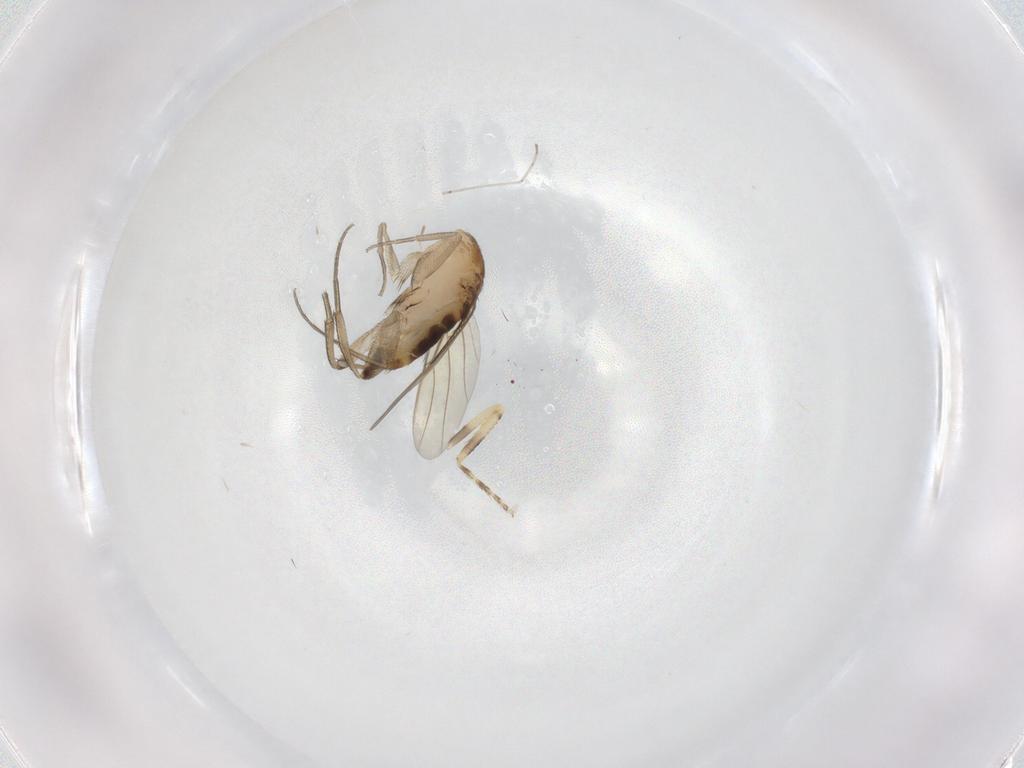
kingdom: Animalia
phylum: Arthropoda
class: Insecta
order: Diptera
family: Phoridae
